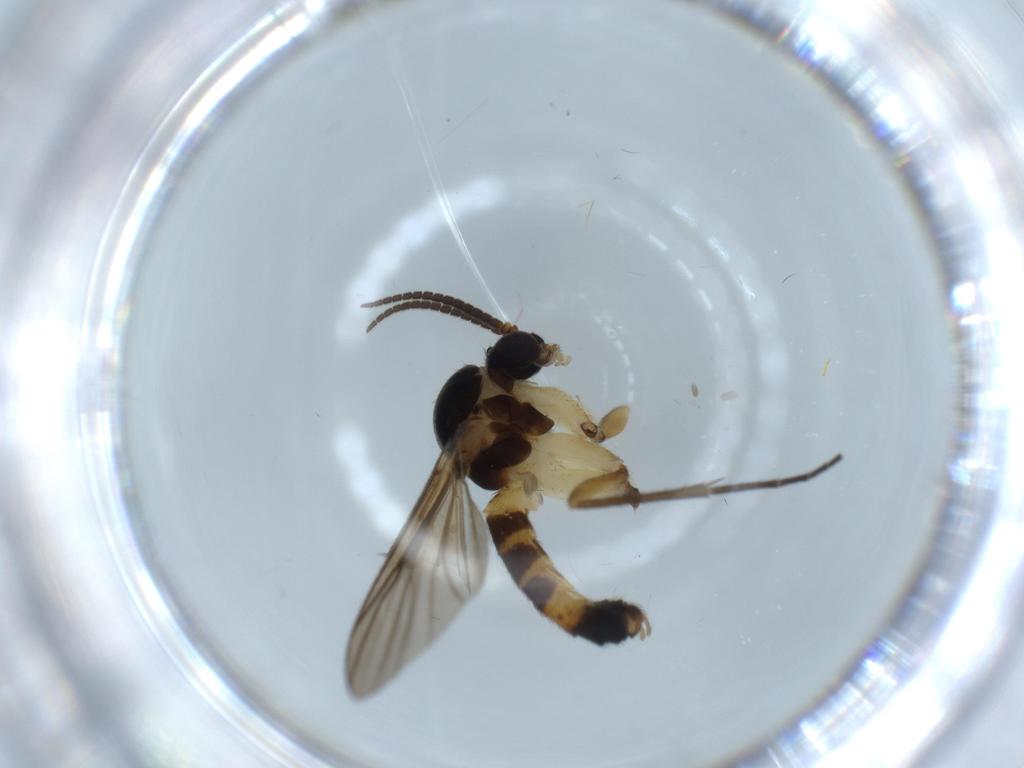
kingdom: Animalia
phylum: Arthropoda
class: Insecta
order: Diptera
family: Mycetophilidae
